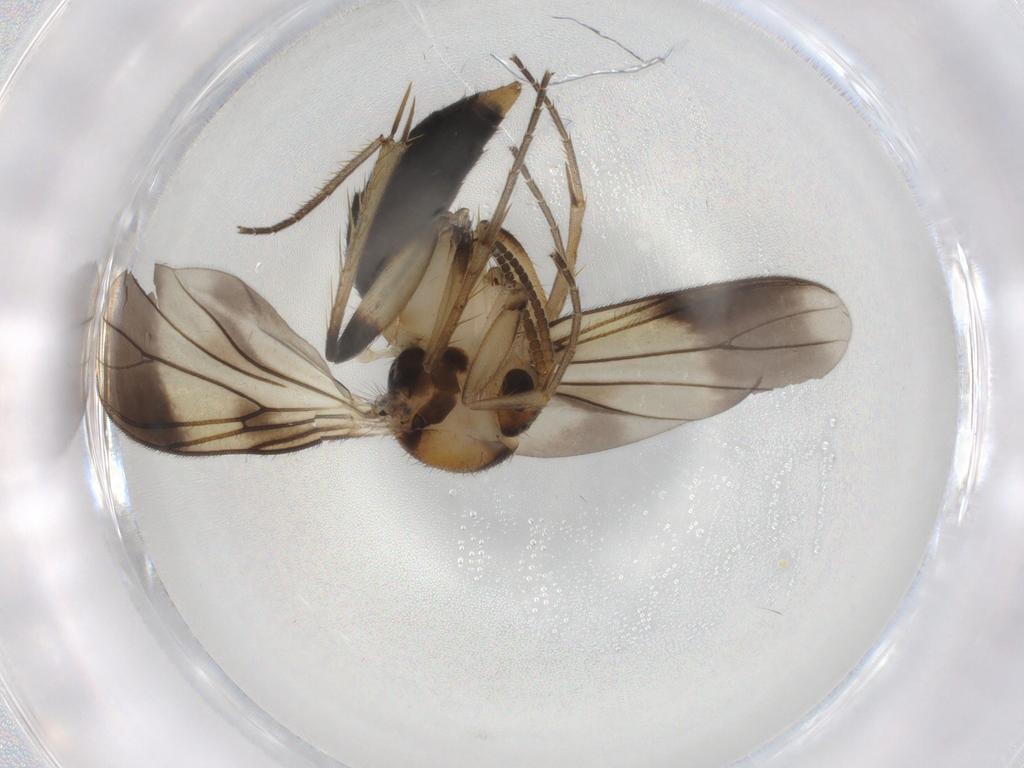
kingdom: Animalia
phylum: Arthropoda
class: Insecta
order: Diptera
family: Mycetophilidae
